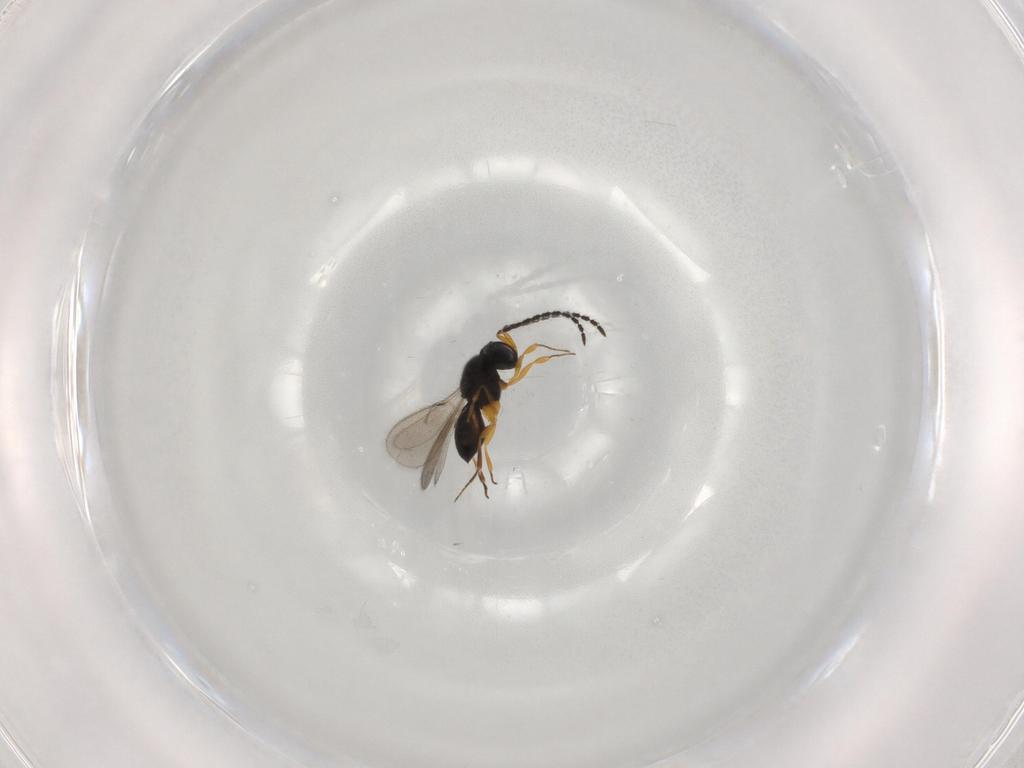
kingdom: Animalia
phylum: Arthropoda
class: Insecta
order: Hymenoptera
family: Scelionidae
